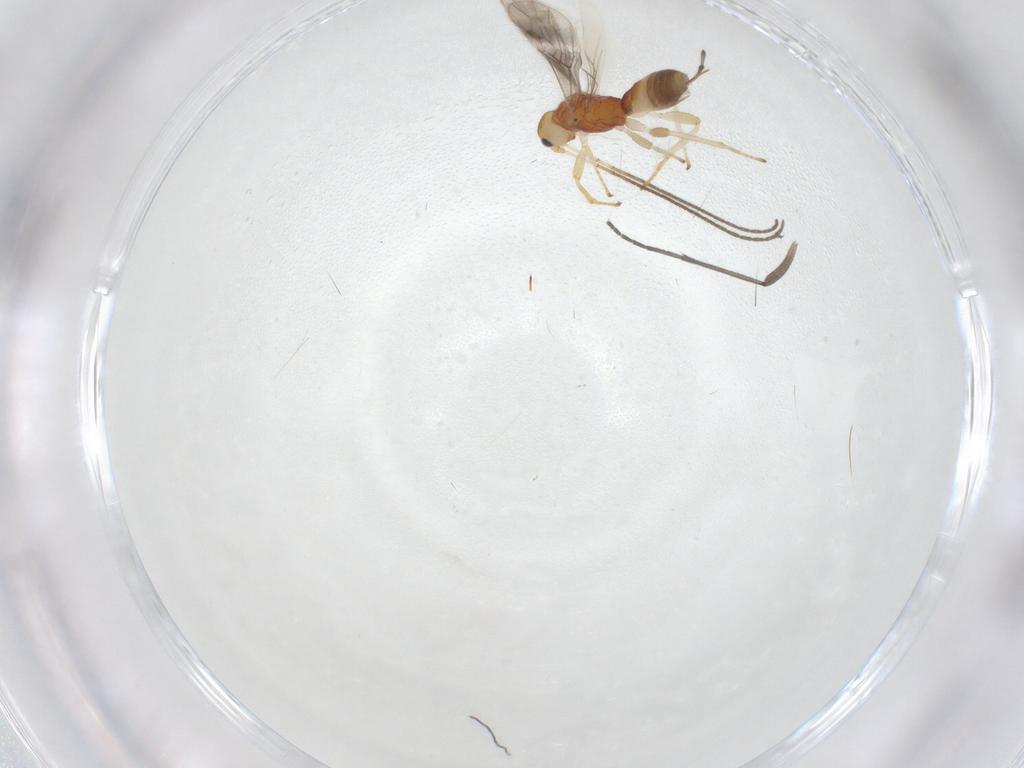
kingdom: Animalia
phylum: Arthropoda
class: Insecta
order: Hymenoptera
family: Braconidae
